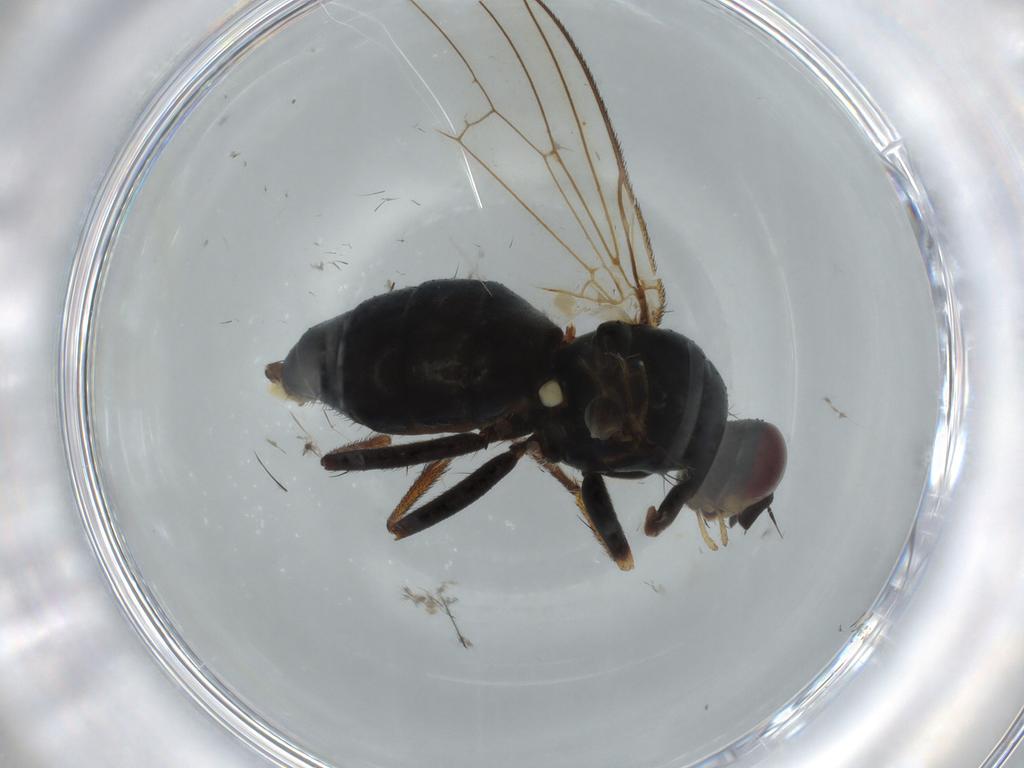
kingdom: Animalia
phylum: Arthropoda
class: Insecta
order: Diptera
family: Scathophagidae
